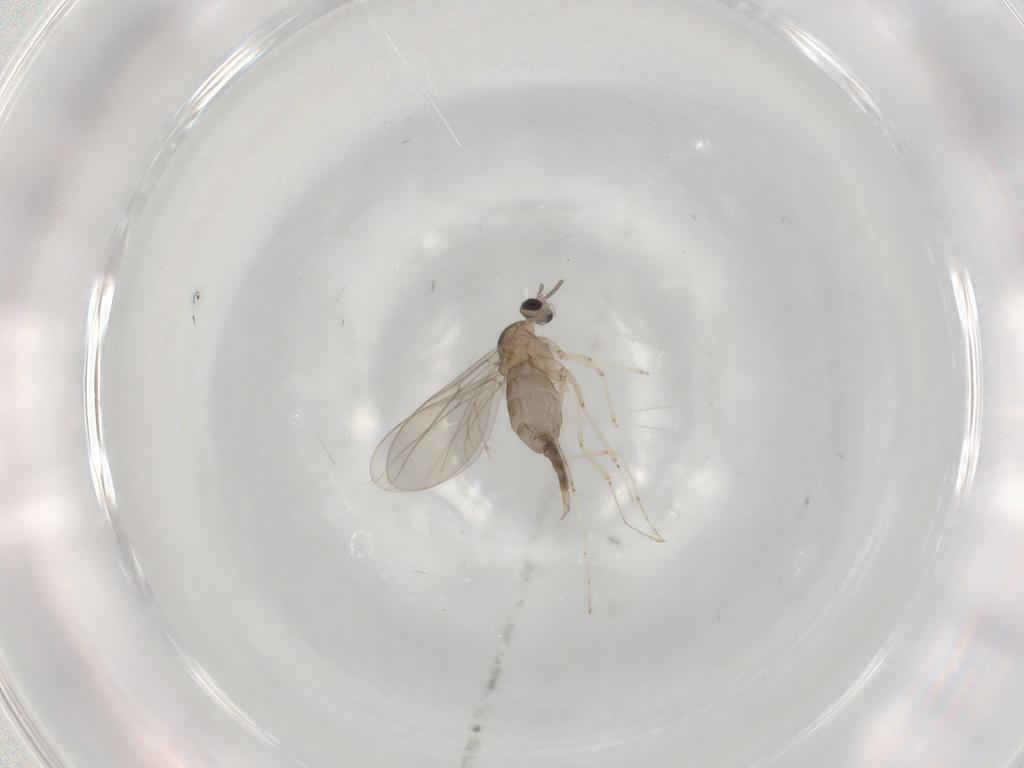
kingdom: Animalia
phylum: Arthropoda
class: Insecta
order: Diptera
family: Cecidomyiidae
